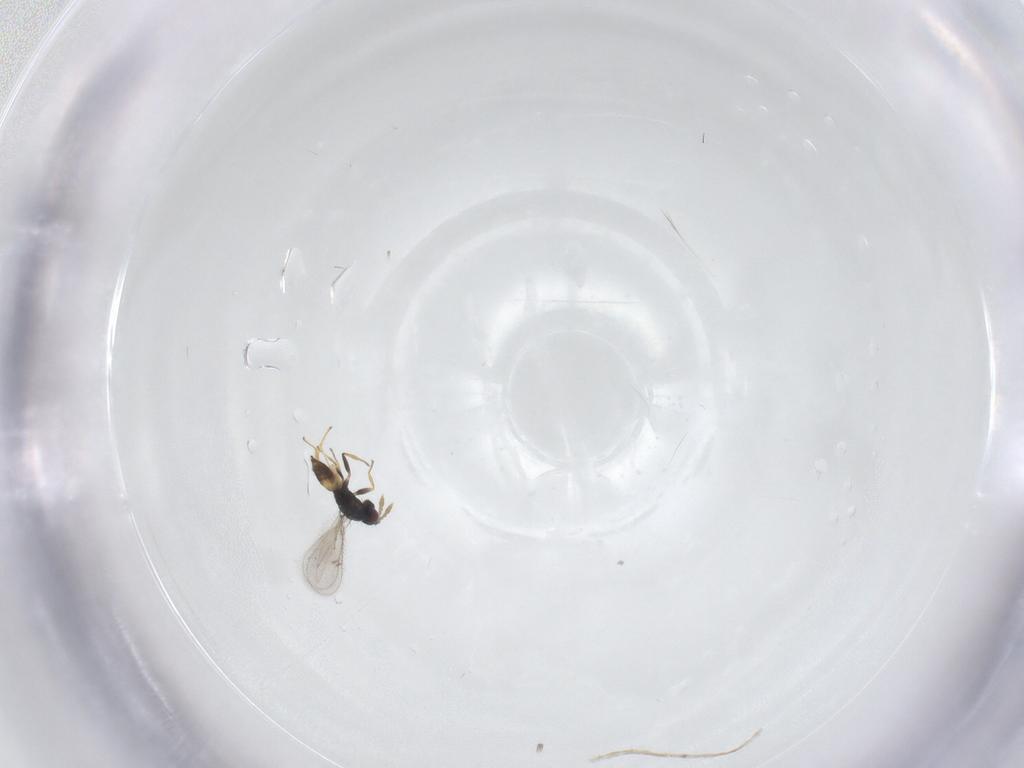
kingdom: Animalia
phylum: Arthropoda
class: Insecta
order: Hymenoptera
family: Eulophidae
